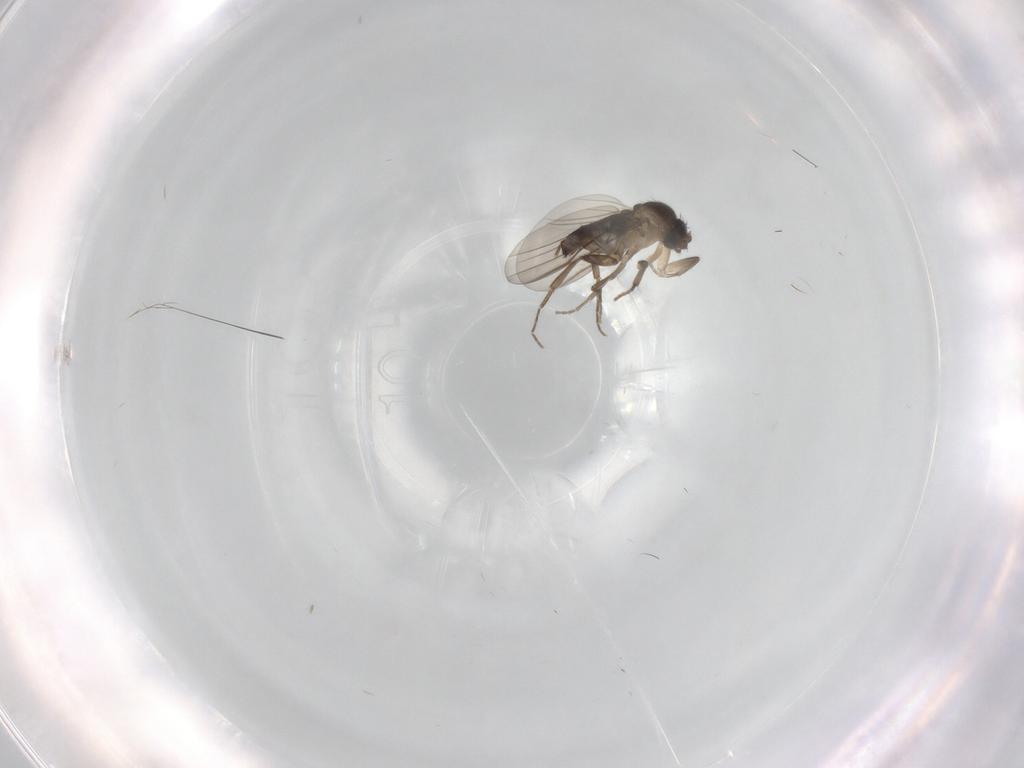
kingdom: Animalia
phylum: Arthropoda
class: Insecta
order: Diptera
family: Phoridae
